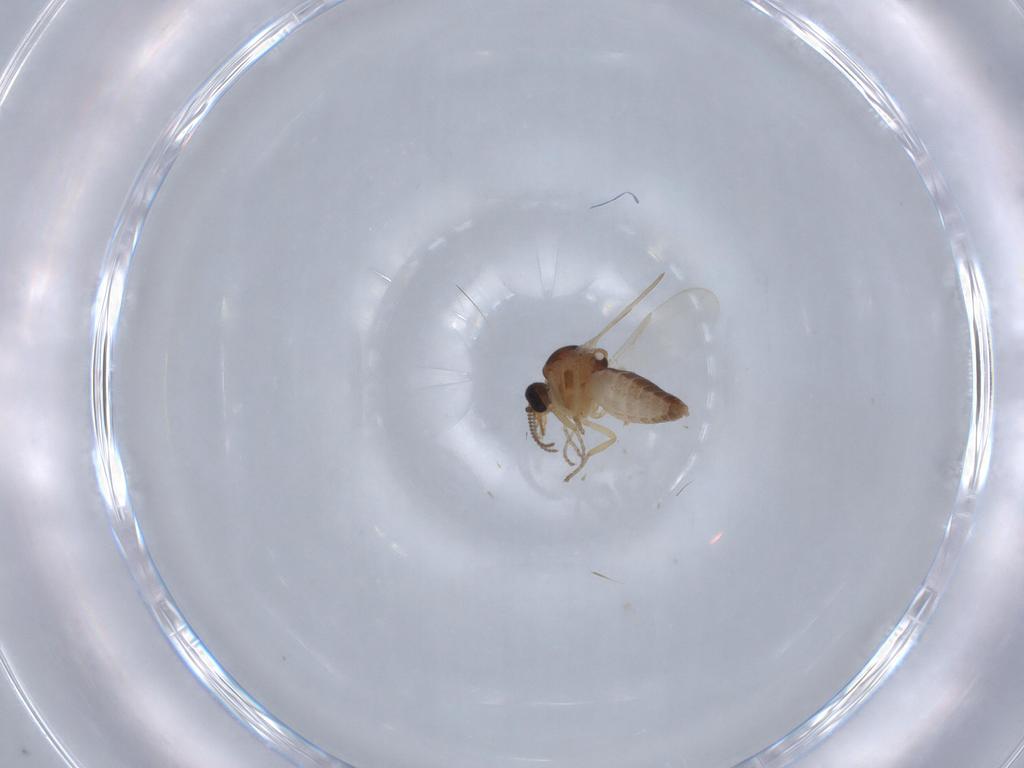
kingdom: Animalia
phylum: Arthropoda
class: Insecta
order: Diptera
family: Ceratopogonidae
